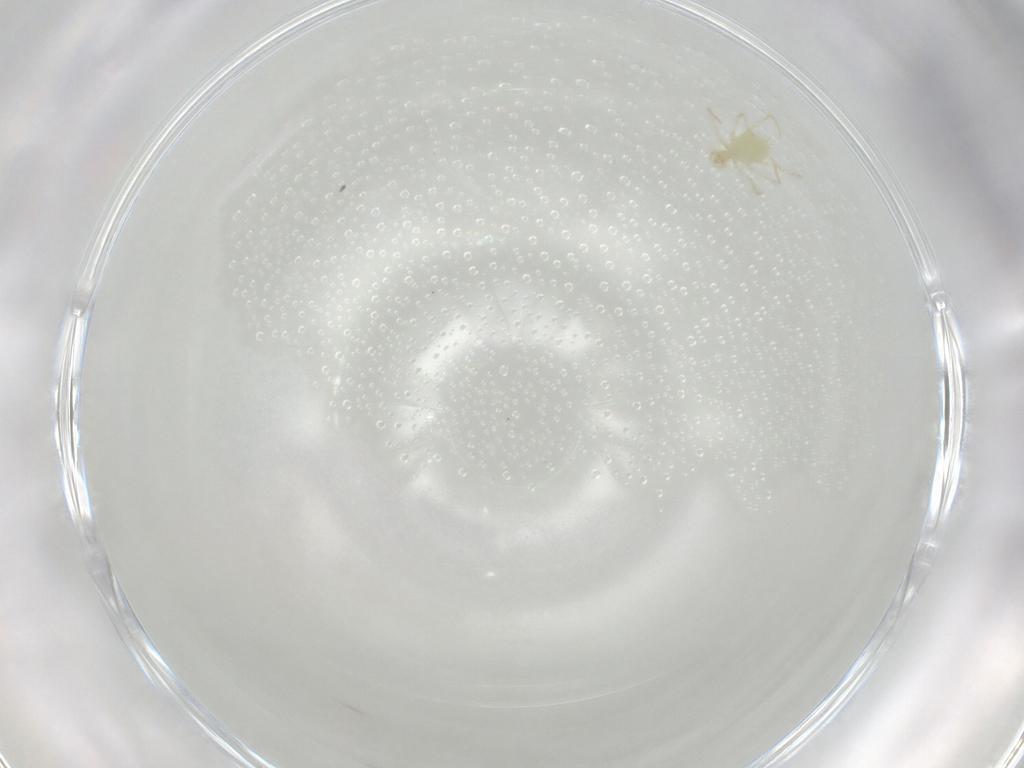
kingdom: Animalia
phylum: Arthropoda
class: Arachnida
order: Trombidiformes
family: Erythraeidae
